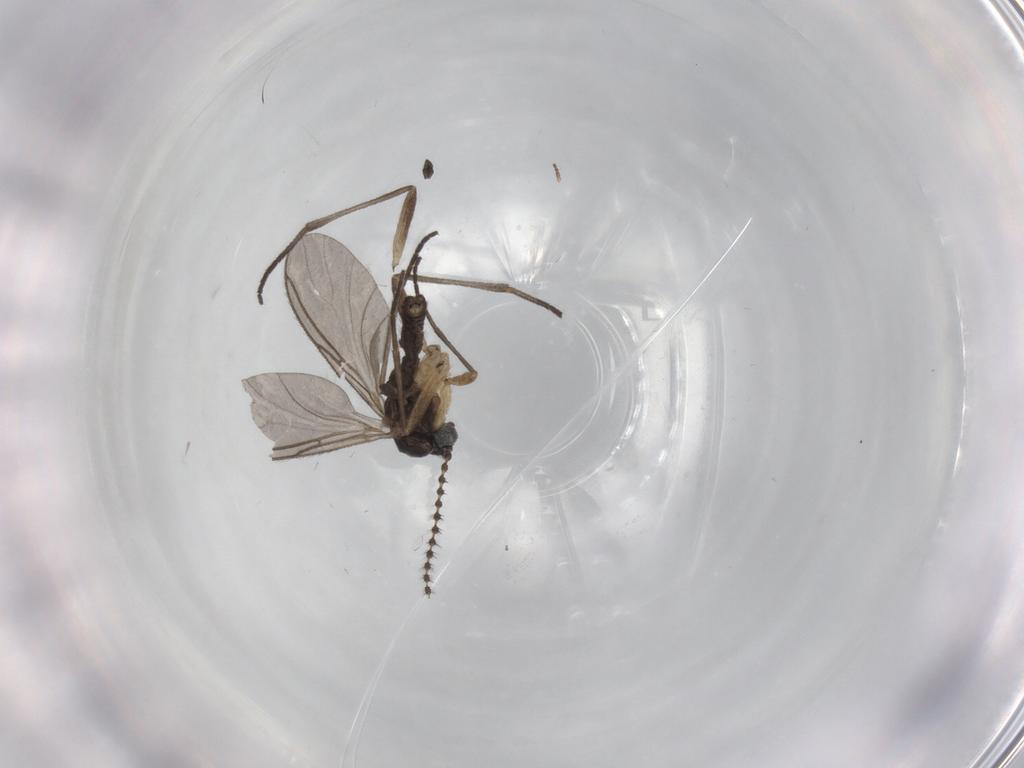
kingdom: Animalia
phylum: Arthropoda
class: Insecta
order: Diptera
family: Sciaridae
